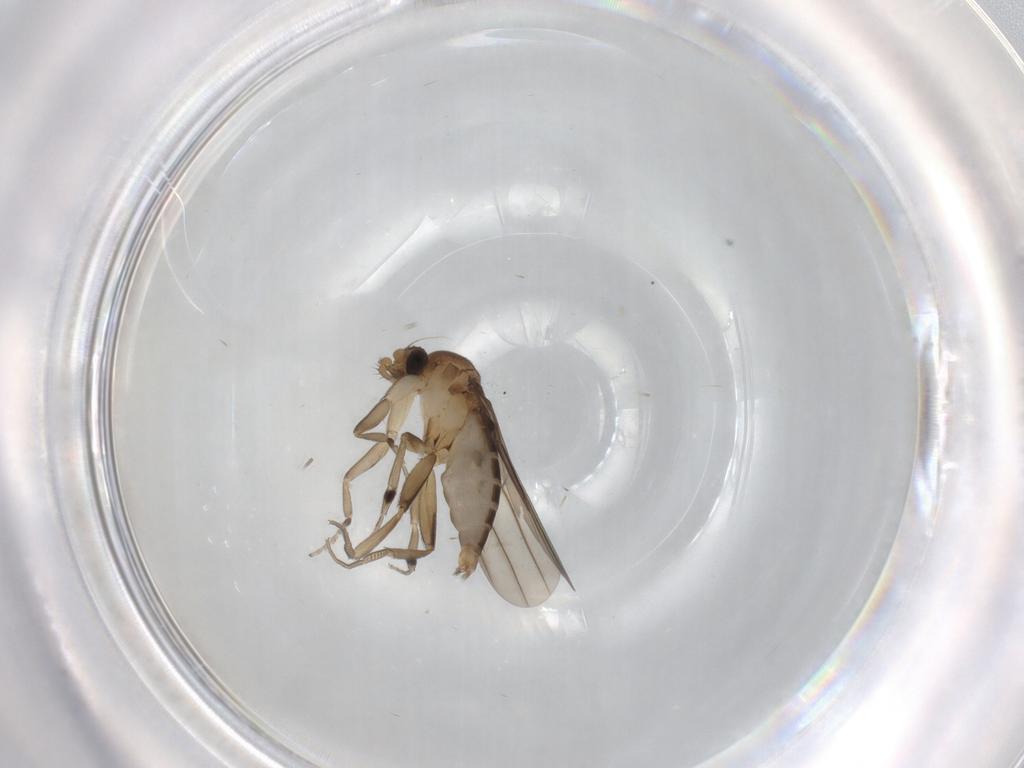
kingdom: Animalia
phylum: Arthropoda
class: Insecta
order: Diptera
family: Phoridae
